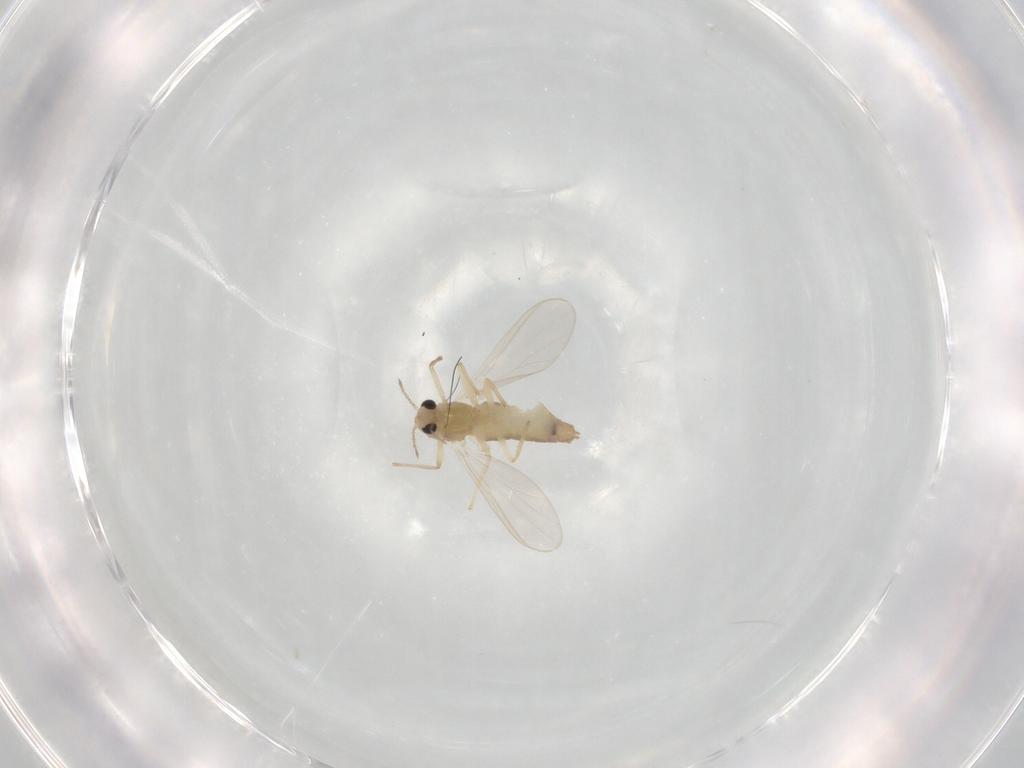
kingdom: Animalia
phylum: Arthropoda
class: Insecta
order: Diptera
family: Chironomidae
